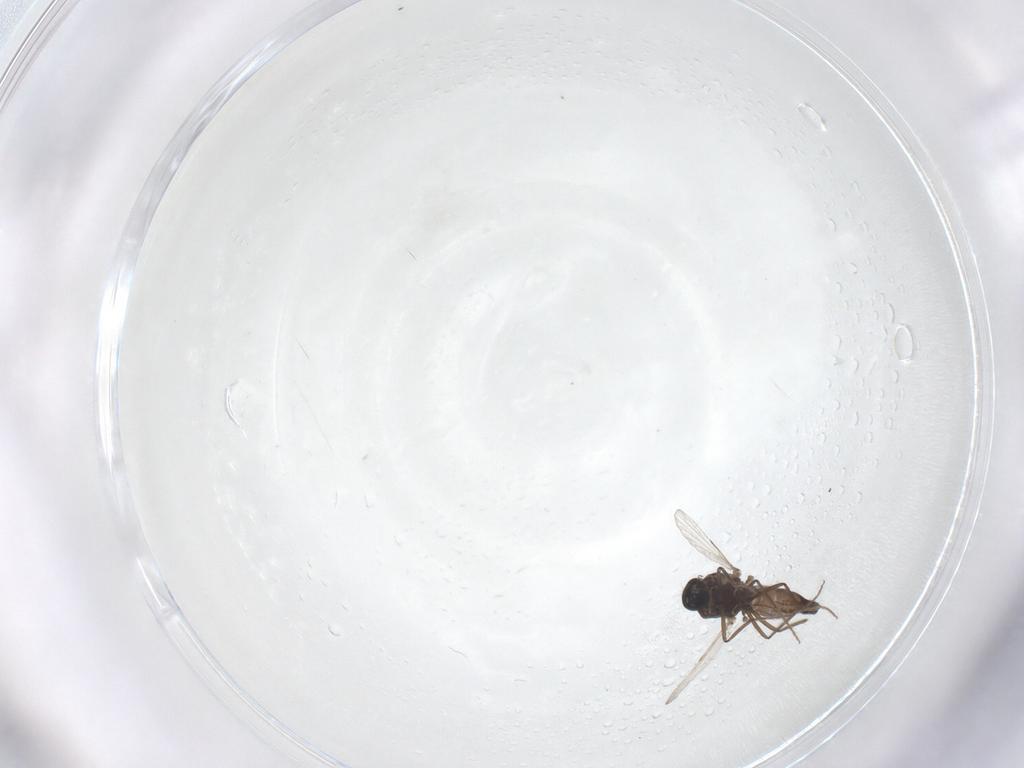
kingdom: Animalia
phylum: Arthropoda
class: Insecta
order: Diptera
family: Ceratopogonidae
